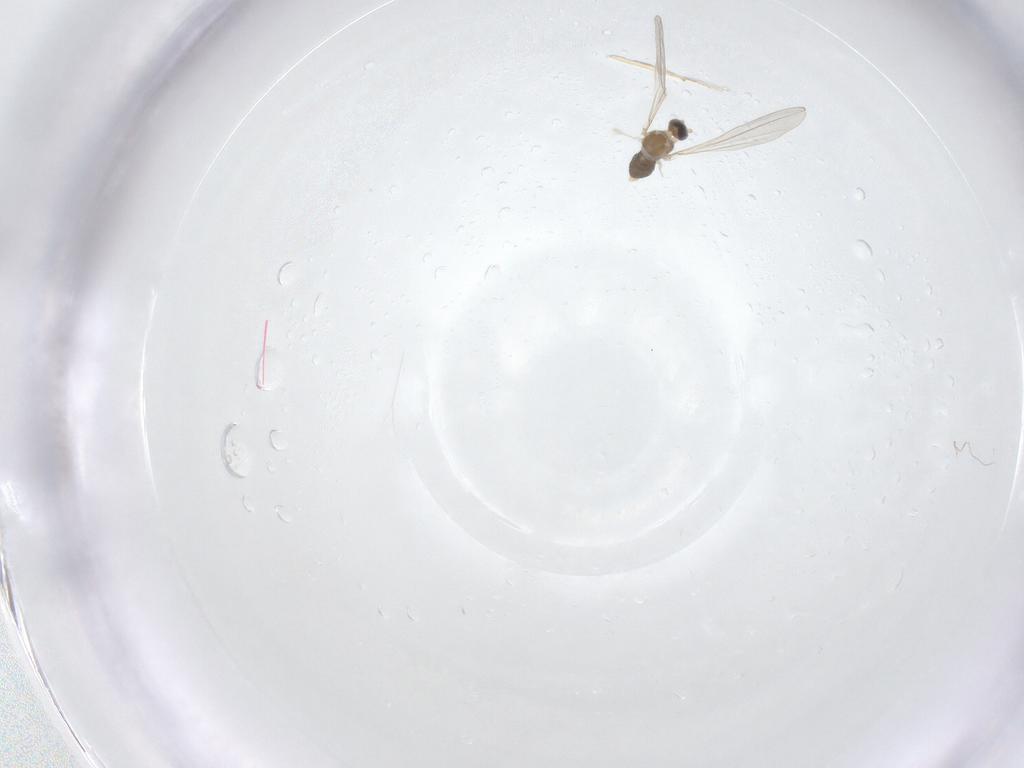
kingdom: Animalia
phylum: Arthropoda
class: Insecta
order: Diptera
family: Cecidomyiidae
